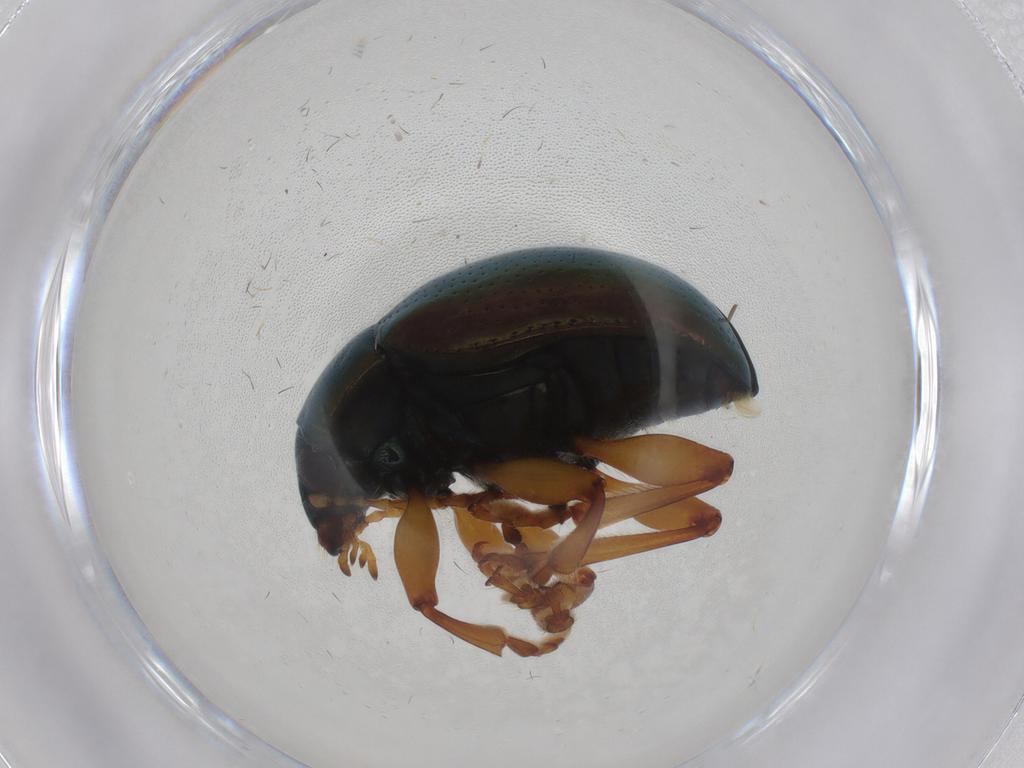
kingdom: Animalia
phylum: Arthropoda
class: Insecta
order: Coleoptera
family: Chrysomelidae
